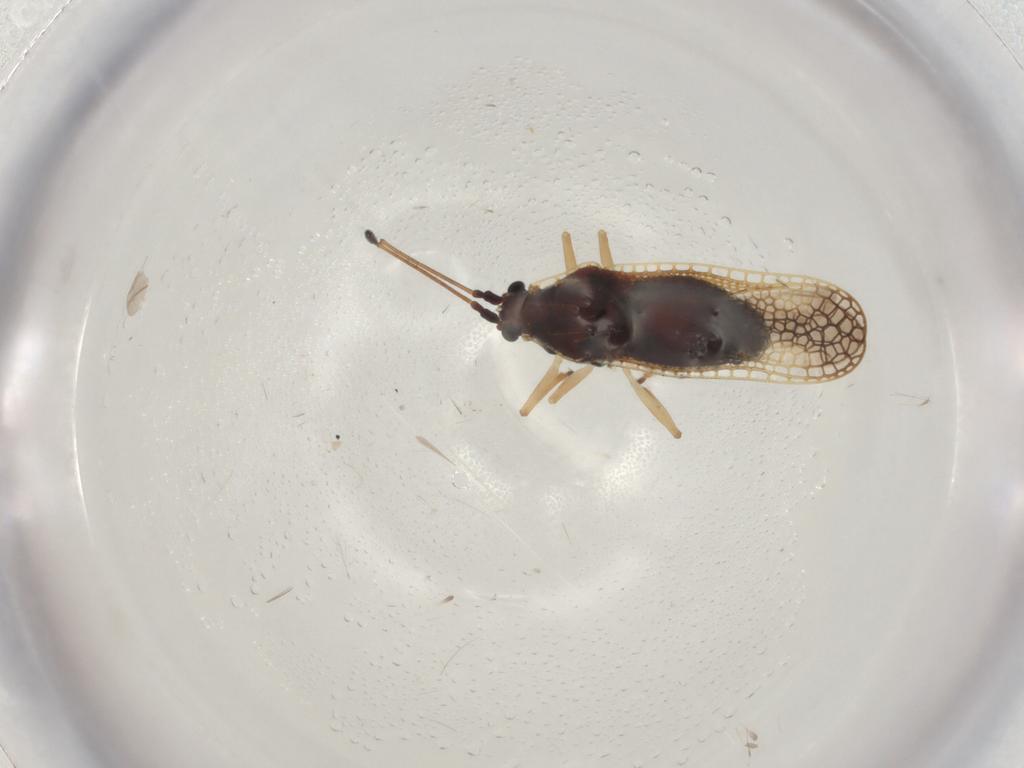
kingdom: Animalia
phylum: Arthropoda
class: Insecta
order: Hemiptera
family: Tingidae
